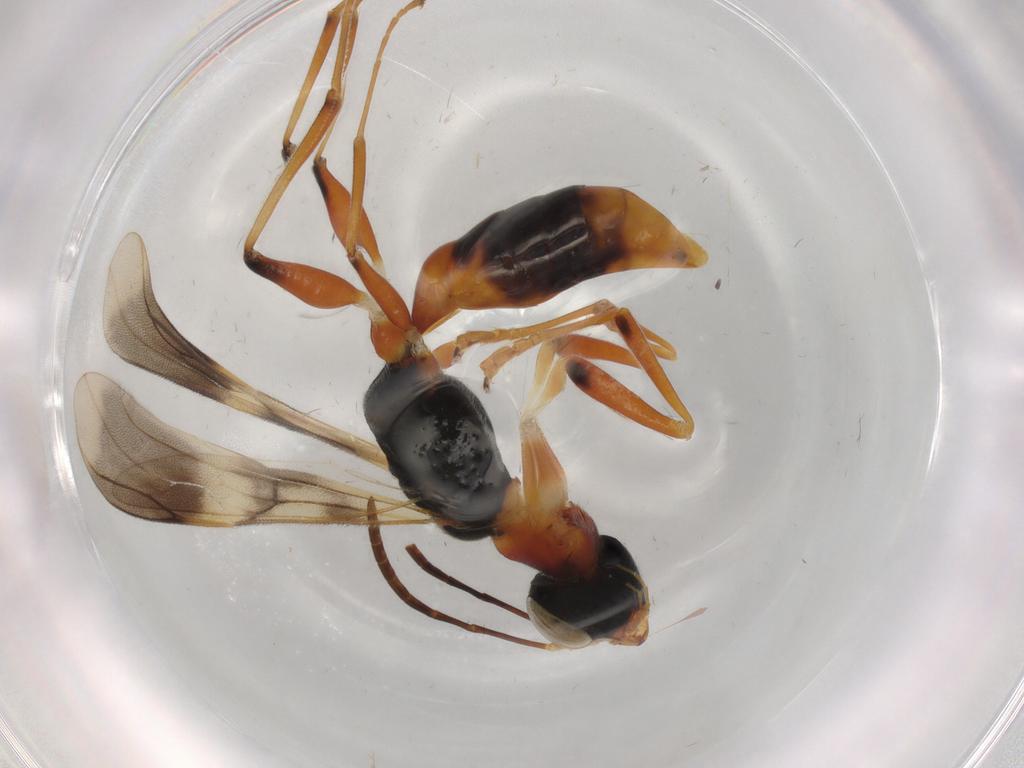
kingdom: Animalia
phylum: Arthropoda
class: Insecta
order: Hymenoptera
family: Dryinidae
